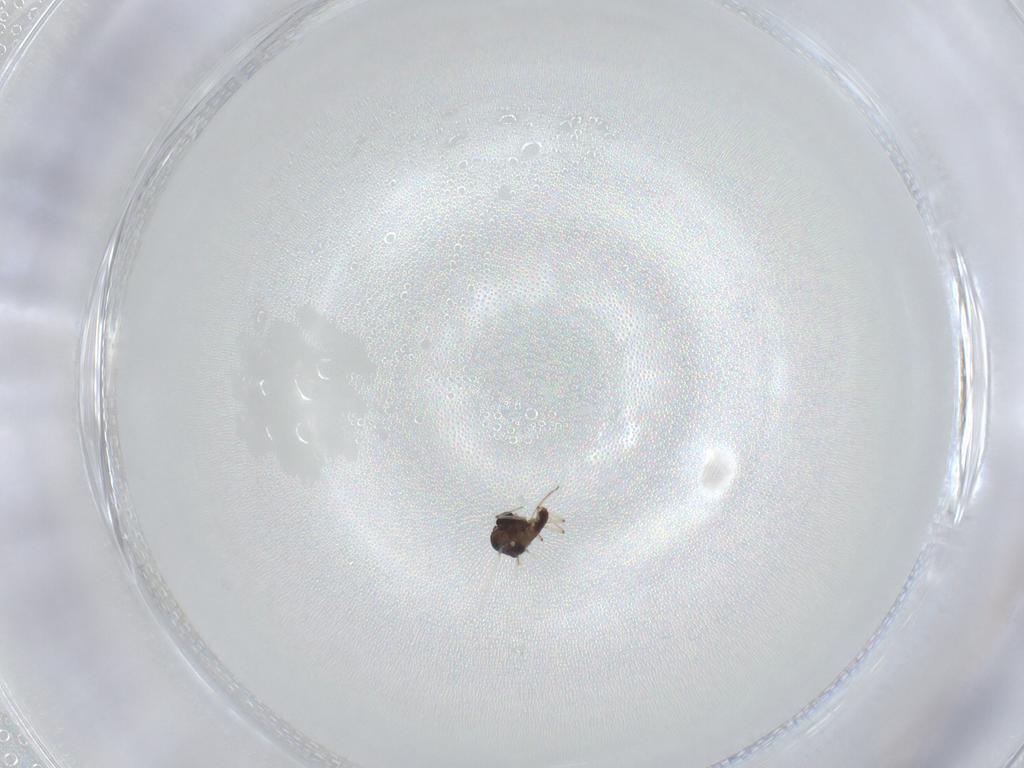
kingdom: Animalia
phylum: Arthropoda
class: Insecta
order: Diptera
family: Chironomidae
